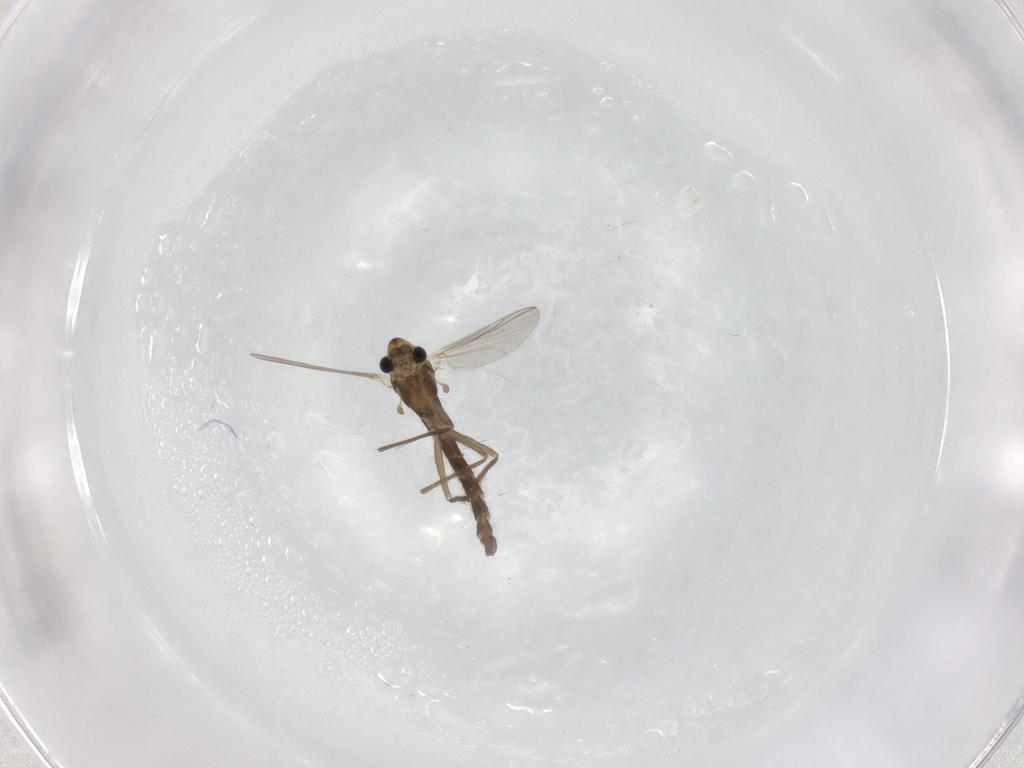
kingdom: Animalia
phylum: Arthropoda
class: Insecta
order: Diptera
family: Chironomidae
